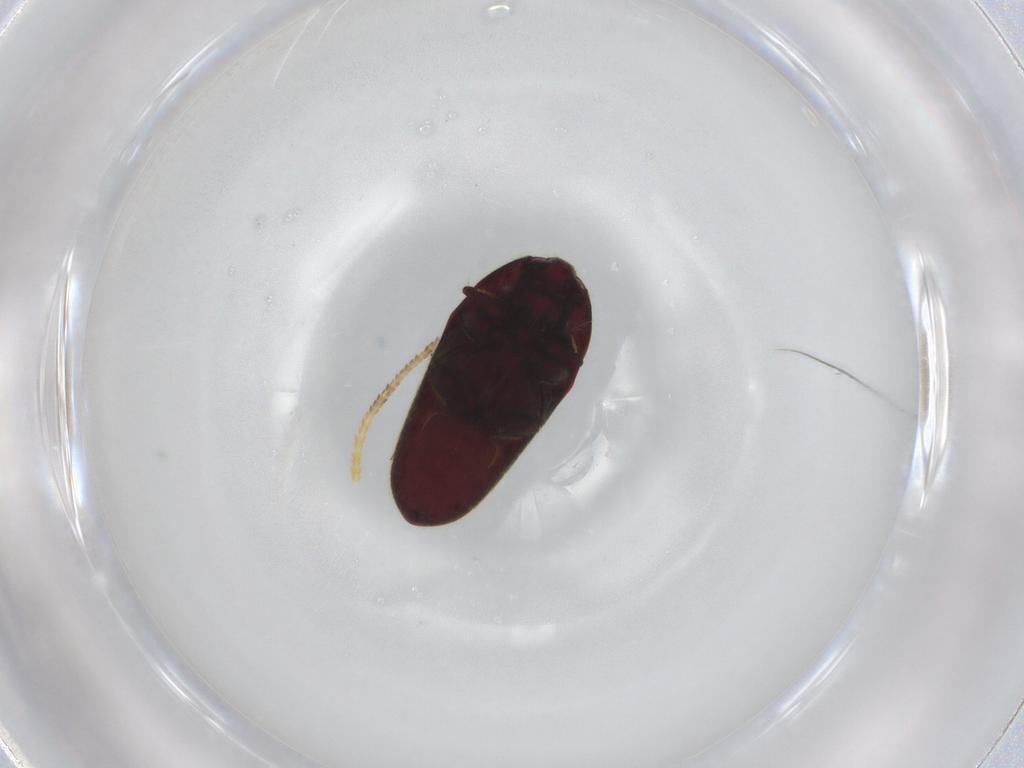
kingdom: Animalia
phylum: Arthropoda
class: Insecta
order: Coleoptera
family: Throscidae
